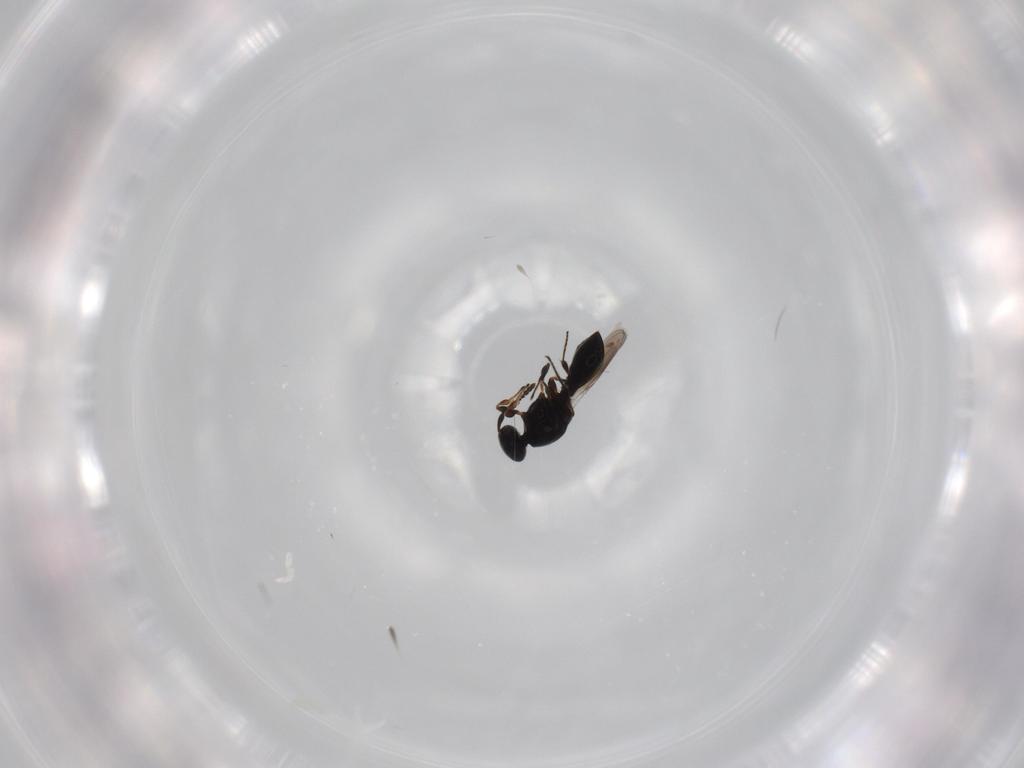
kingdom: Animalia
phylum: Arthropoda
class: Insecta
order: Hymenoptera
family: Platygastridae
